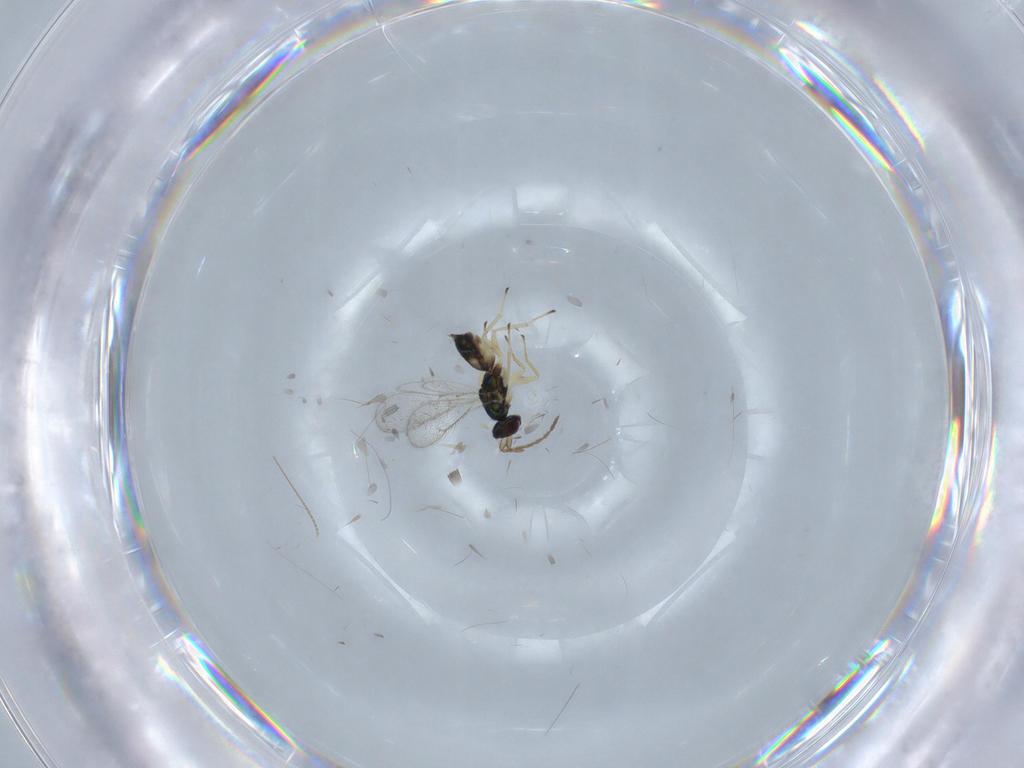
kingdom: Animalia
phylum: Arthropoda
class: Insecta
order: Hymenoptera
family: Eulophidae
